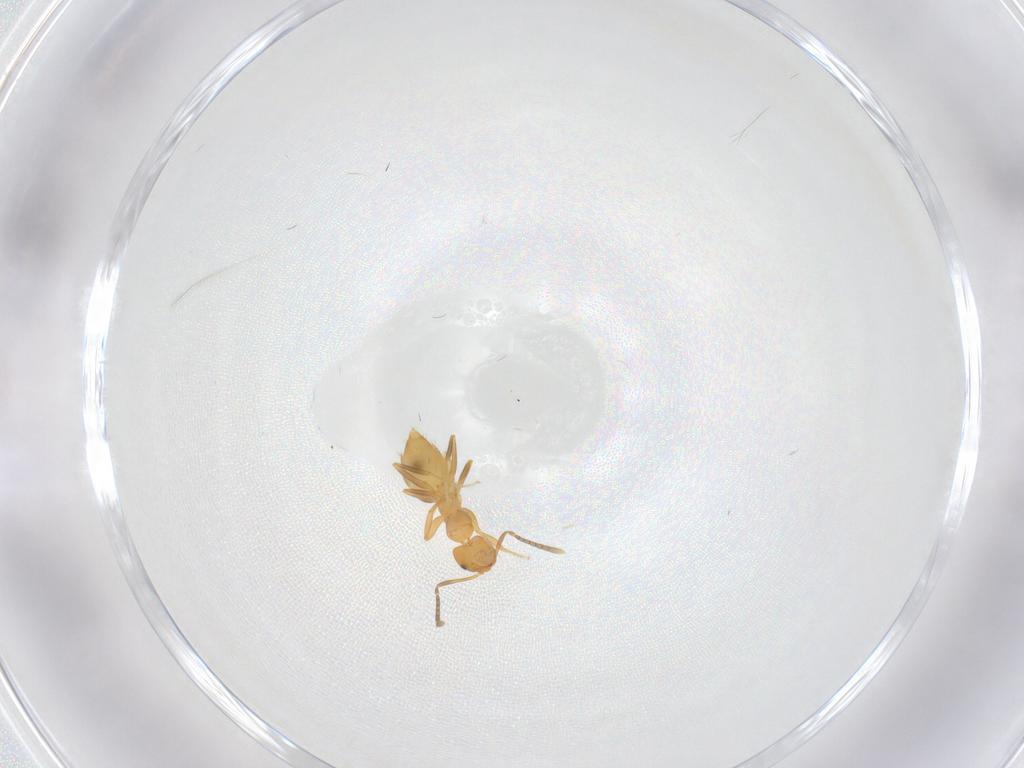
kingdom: Animalia
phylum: Arthropoda
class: Insecta
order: Hymenoptera
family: Formicidae
